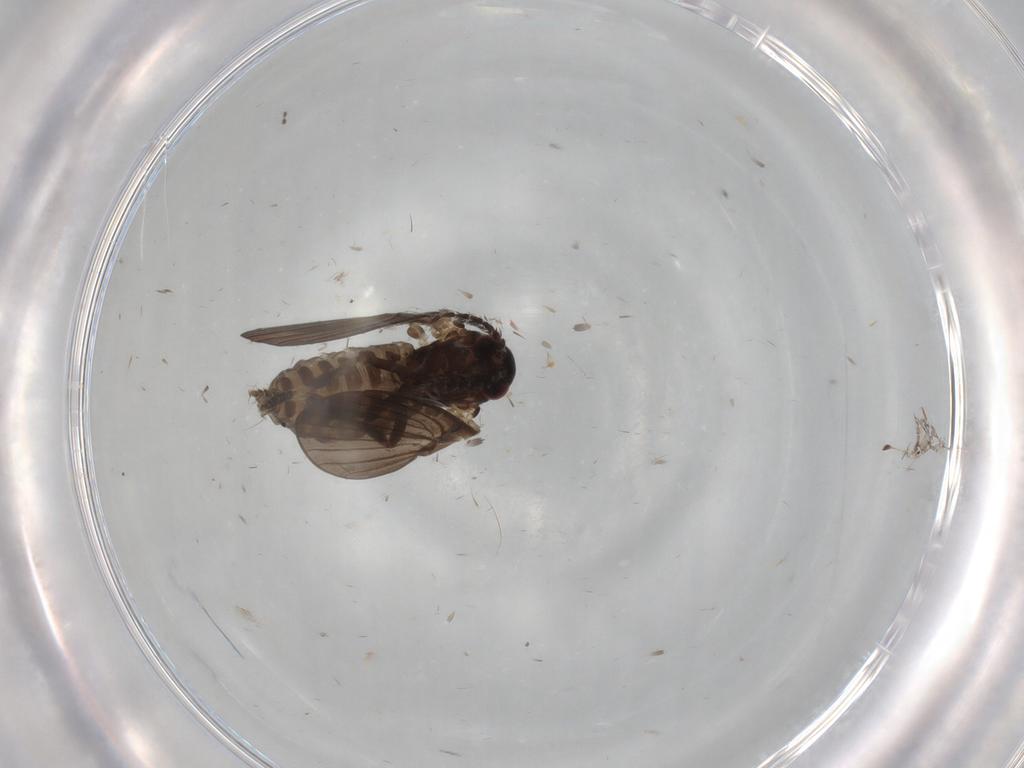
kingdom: Animalia
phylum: Arthropoda
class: Insecta
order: Diptera
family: Psychodidae
